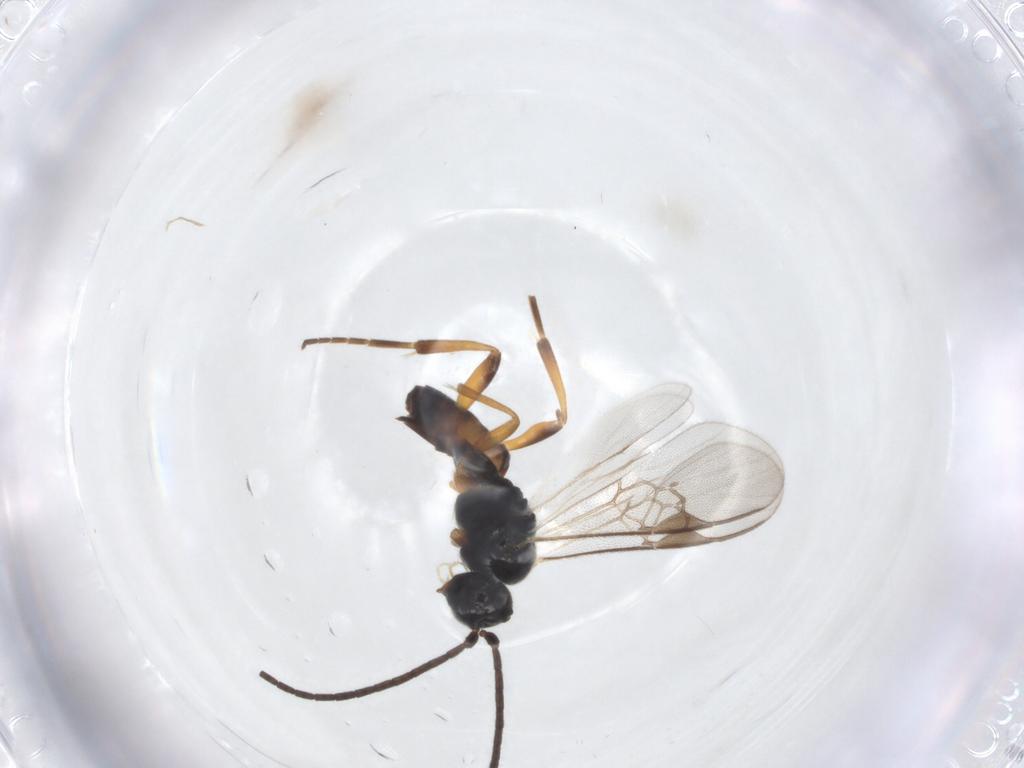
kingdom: Animalia
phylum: Arthropoda
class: Insecta
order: Hymenoptera
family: Braconidae
